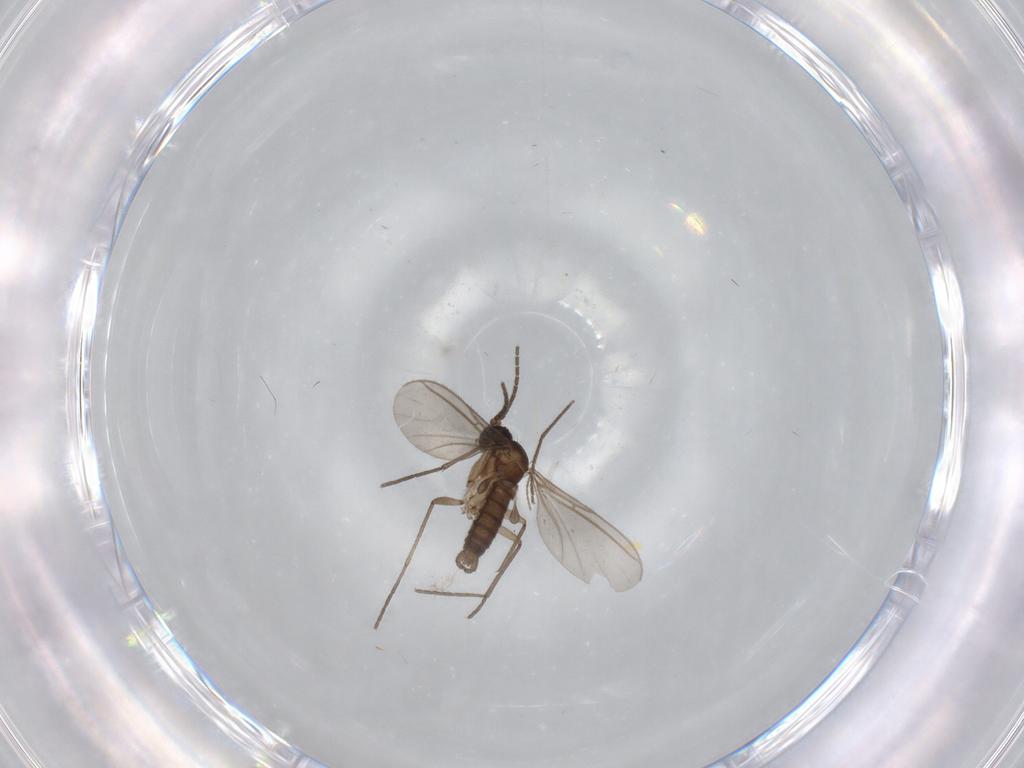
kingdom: Animalia
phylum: Arthropoda
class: Insecta
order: Diptera
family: Sciaridae
